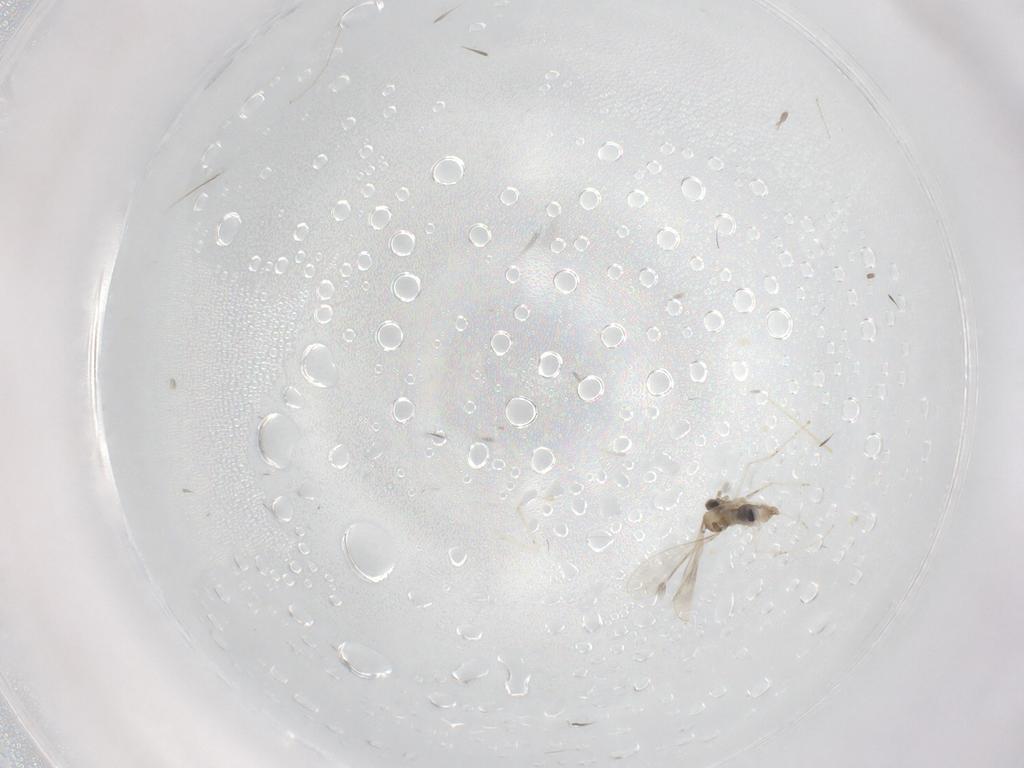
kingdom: Animalia
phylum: Arthropoda
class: Insecta
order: Diptera
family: Cecidomyiidae
